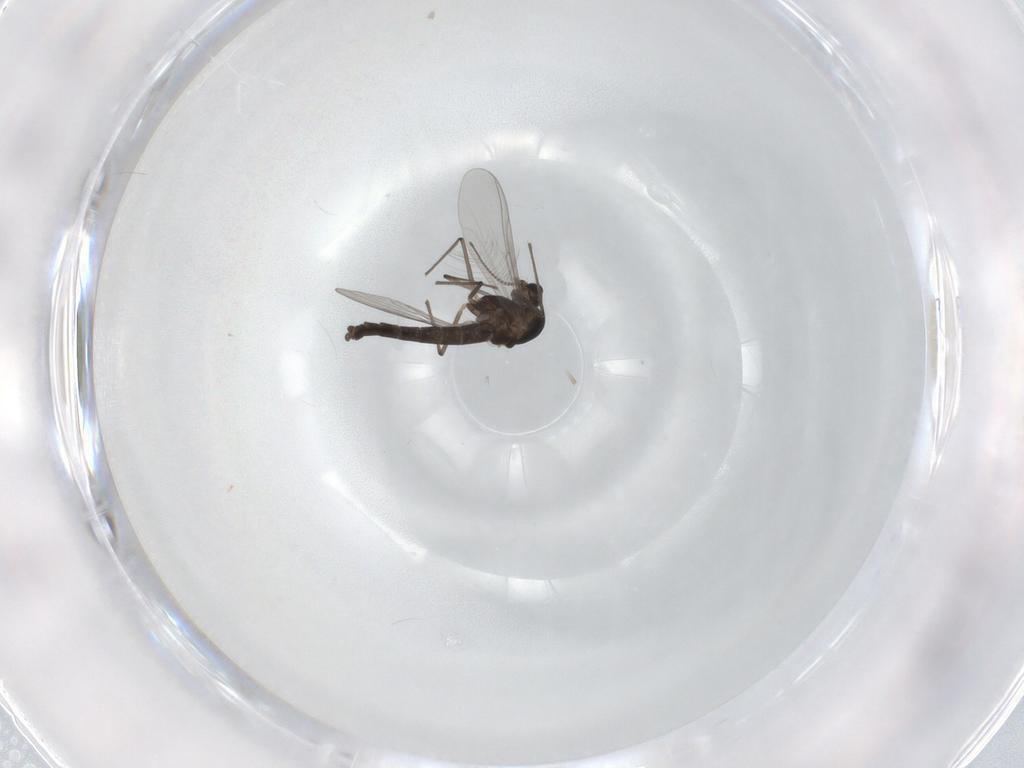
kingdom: Animalia
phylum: Arthropoda
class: Insecta
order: Diptera
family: Chironomidae
